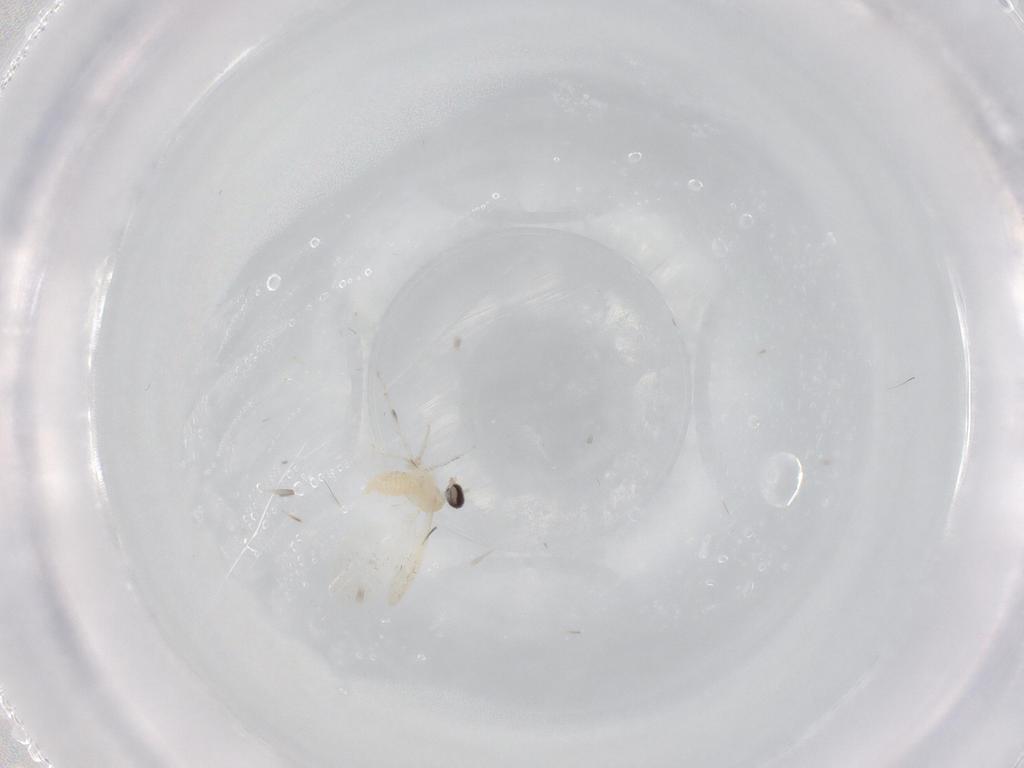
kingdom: Animalia
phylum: Arthropoda
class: Insecta
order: Diptera
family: Cecidomyiidae
